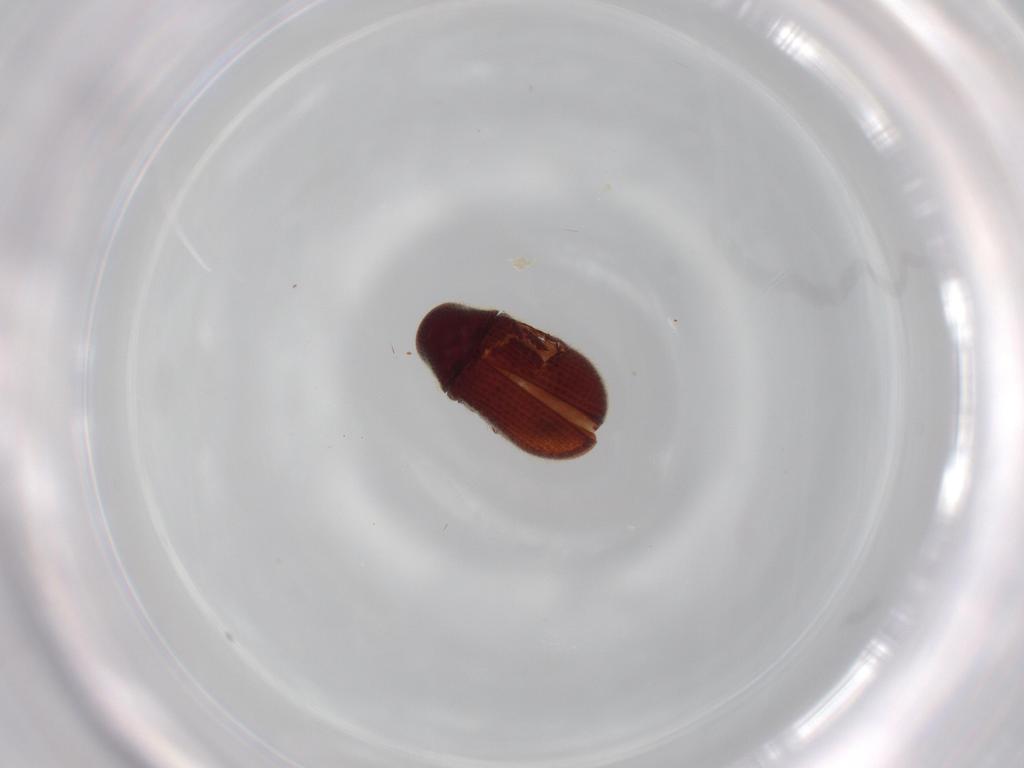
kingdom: Animalia
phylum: Arthropoda
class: Insecta
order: Coleoptera
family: Ptinidae
